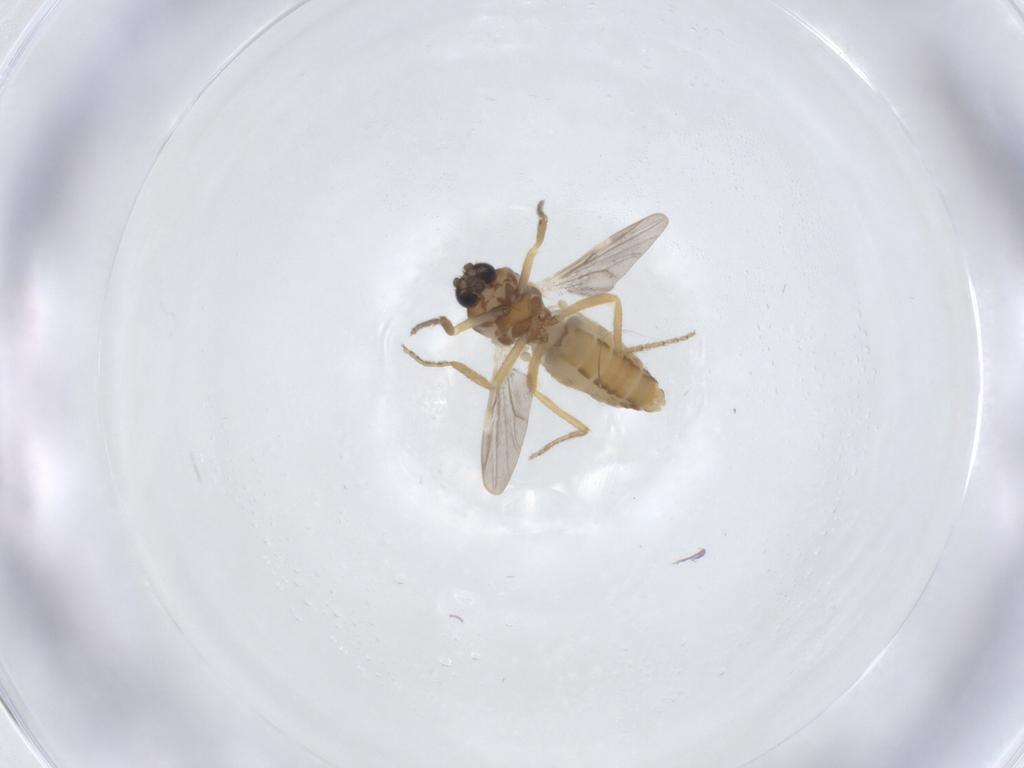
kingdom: Animalia
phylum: Arthropoda
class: Insecta
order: Diptera
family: Ceratopogonidae
